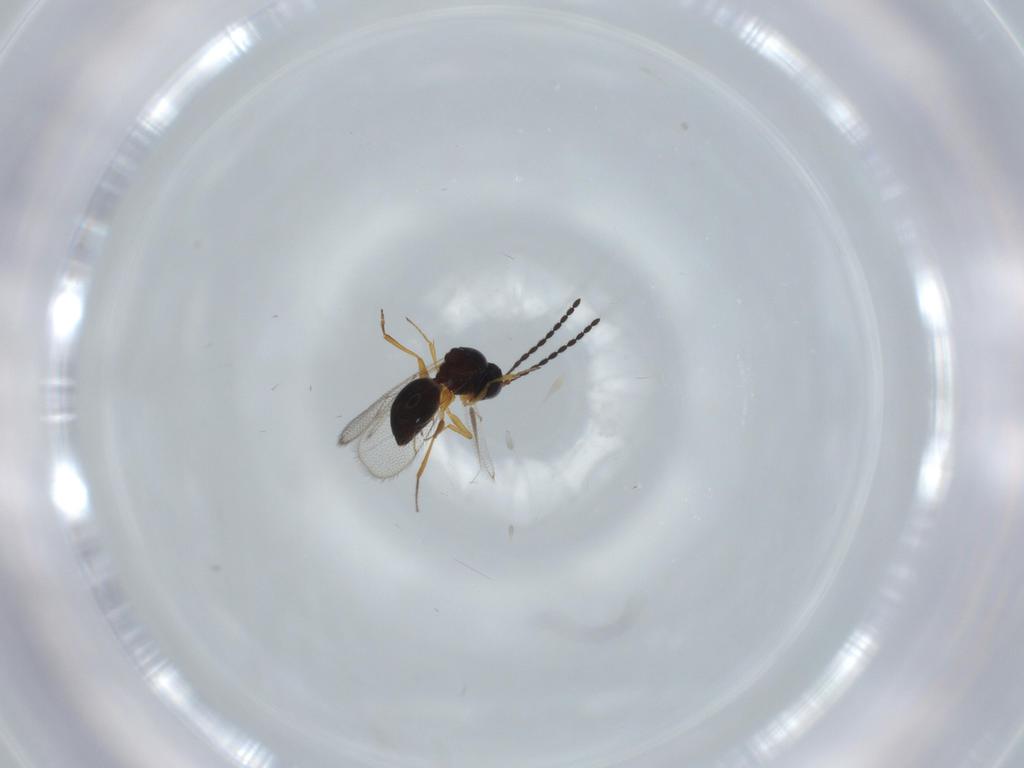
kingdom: Animalia
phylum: Arthropoda
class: Insecta
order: Hymenoptera
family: Figitidae
